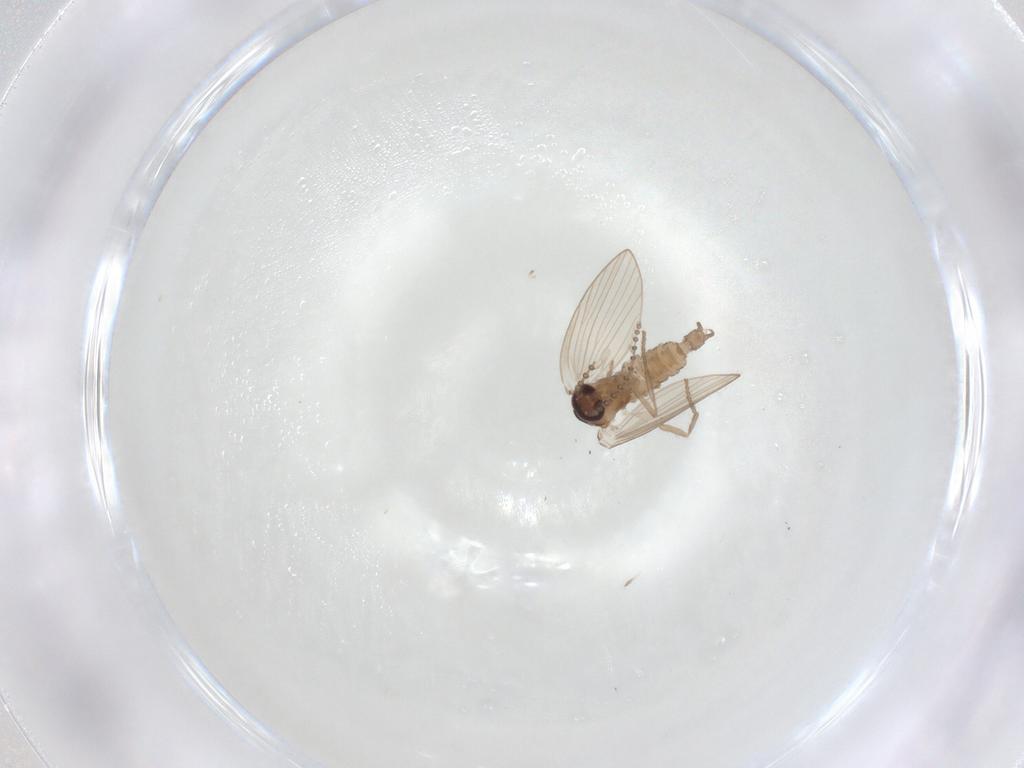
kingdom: Animalia
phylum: Arthropoda
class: Insecta
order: Diptera
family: Psychodidae
